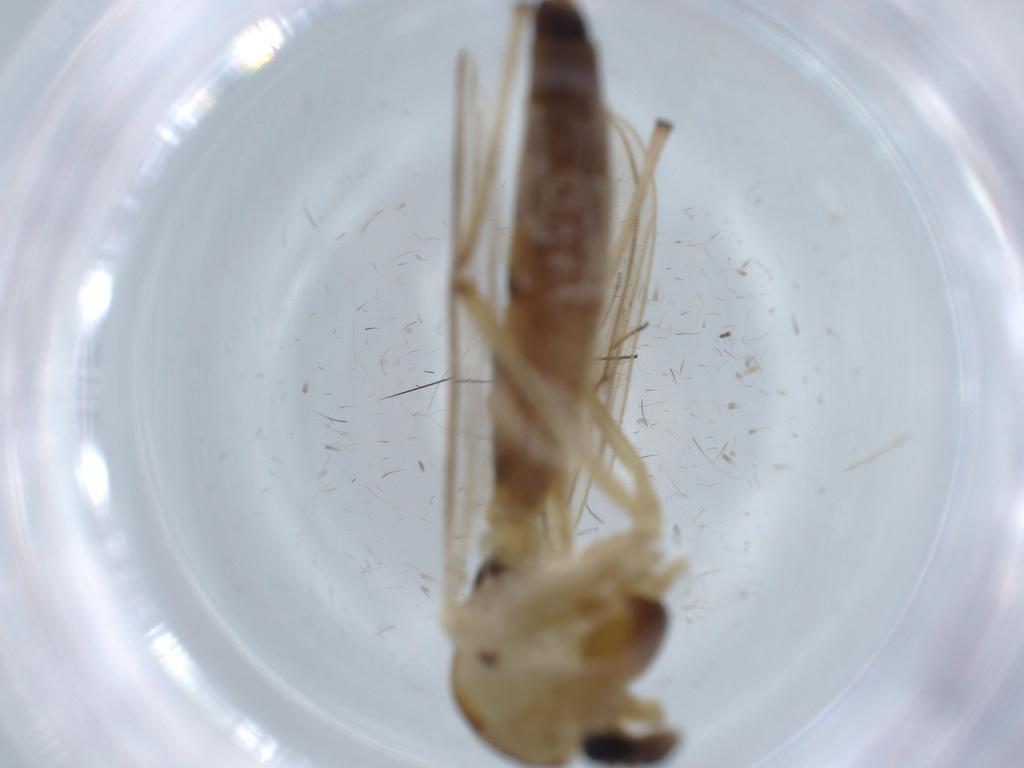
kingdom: Animalia
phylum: Arthropoda
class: Insecta
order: Diptera
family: Chironomidae
